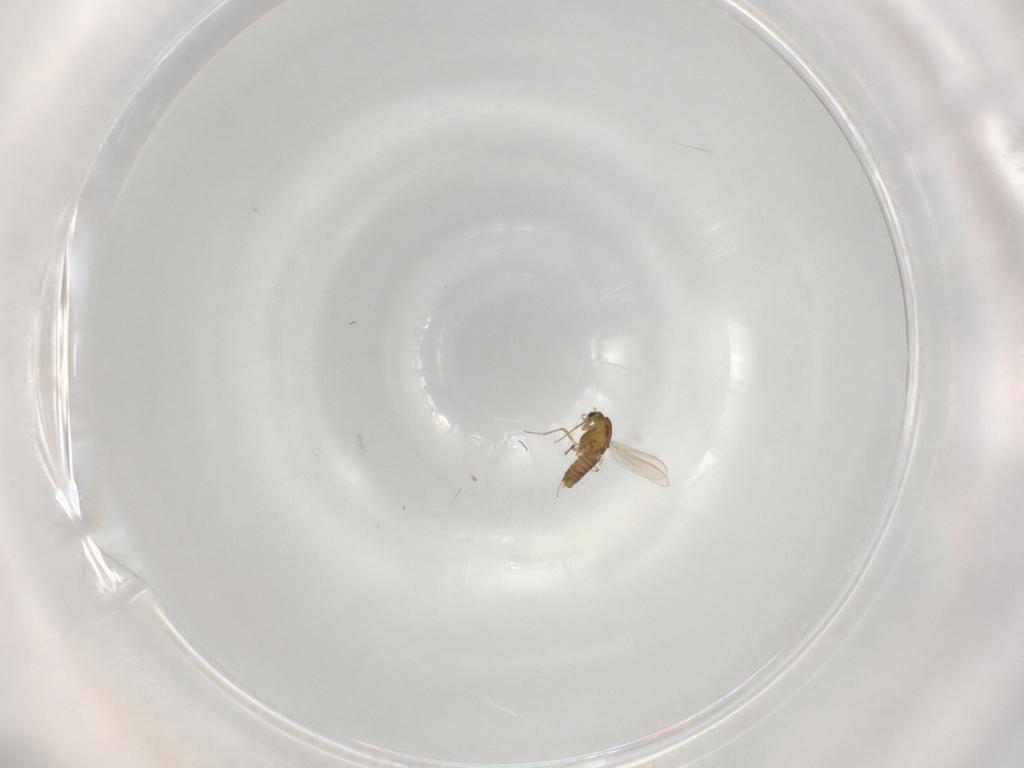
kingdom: Animalia
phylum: Arthropoda
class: Insecta
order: Diptera
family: Chironomidae
